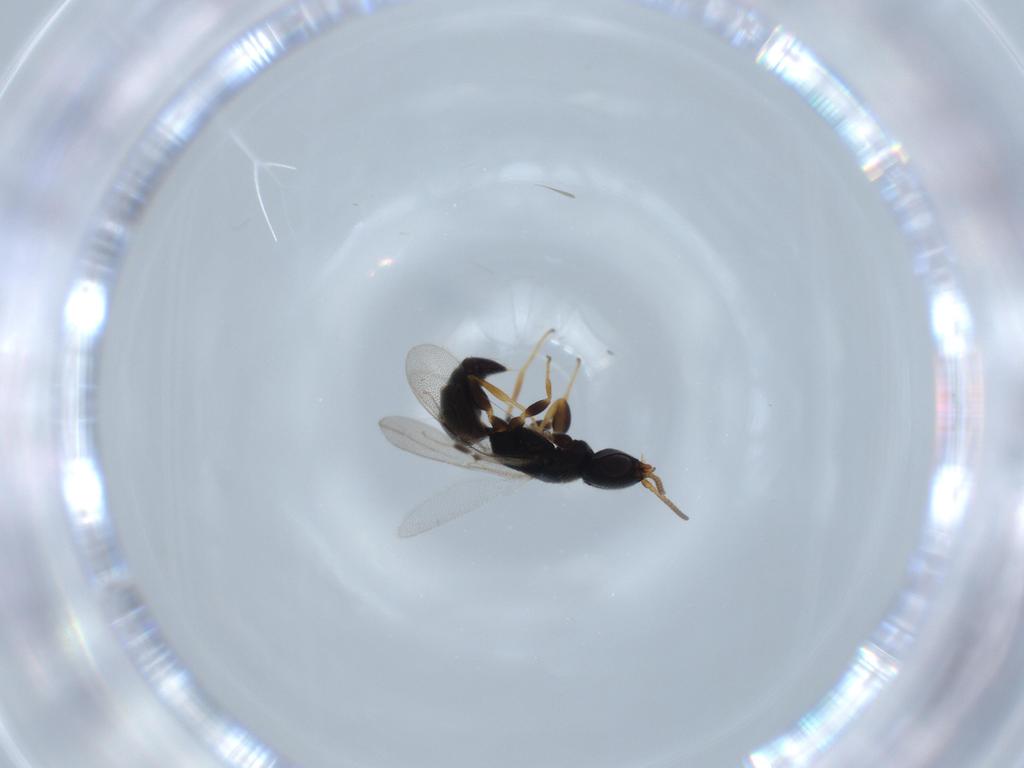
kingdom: Animalia
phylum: Arthropoda
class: Insecta
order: Hymenoptera
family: Bethylidae
